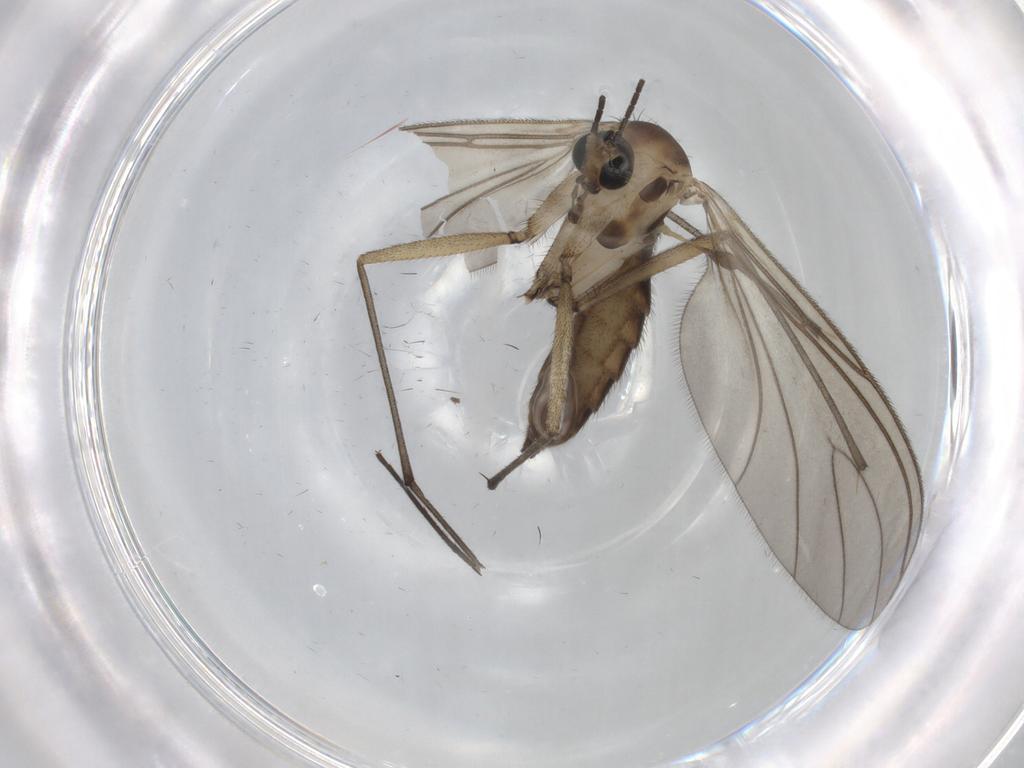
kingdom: Animalia
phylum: Arthropoda
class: Insecta
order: Diptera
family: Sciaridae
